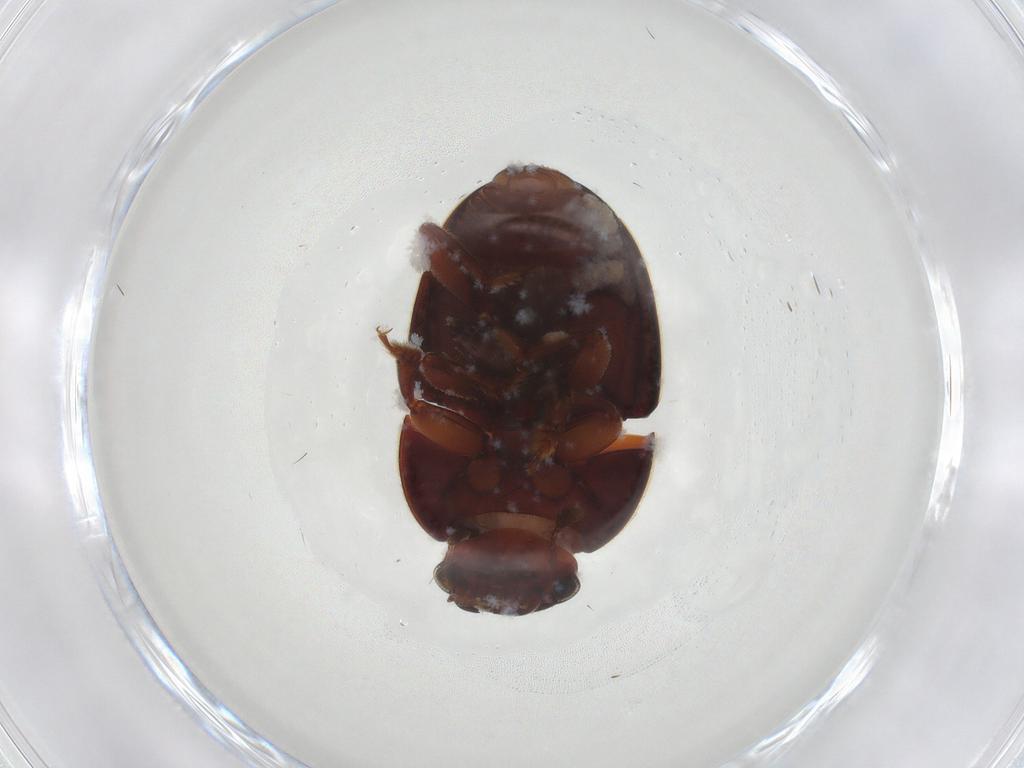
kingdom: Animalia
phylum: Arthropoda
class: Insecta
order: Coleoptera
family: Nitidulidae
